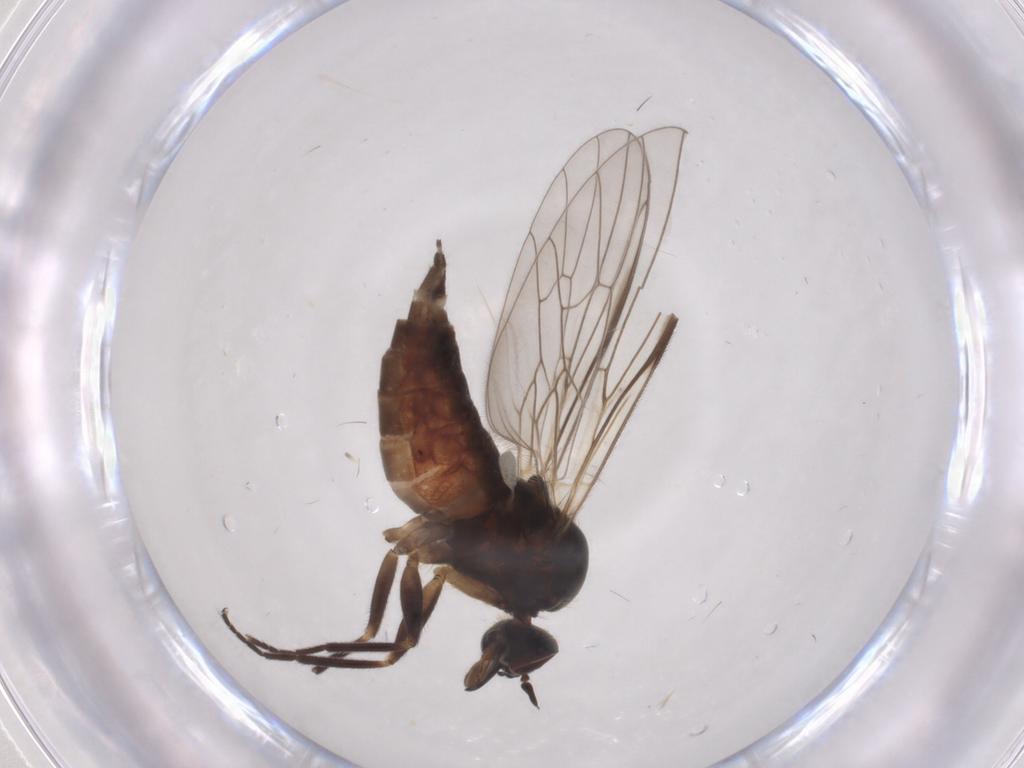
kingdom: Animalia
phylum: Arthropoda
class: Insecta
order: Diptera
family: Empididae
